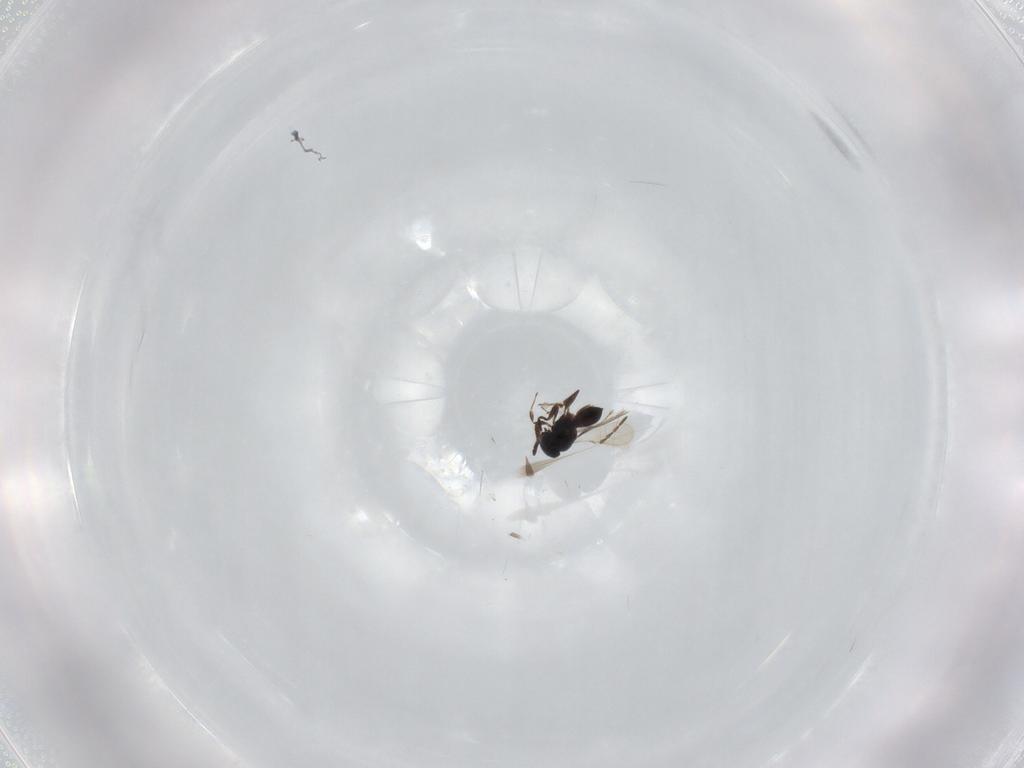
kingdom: Animalia
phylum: Arthropoda
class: Insecta
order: Hymenoptera
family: Scelionidae
